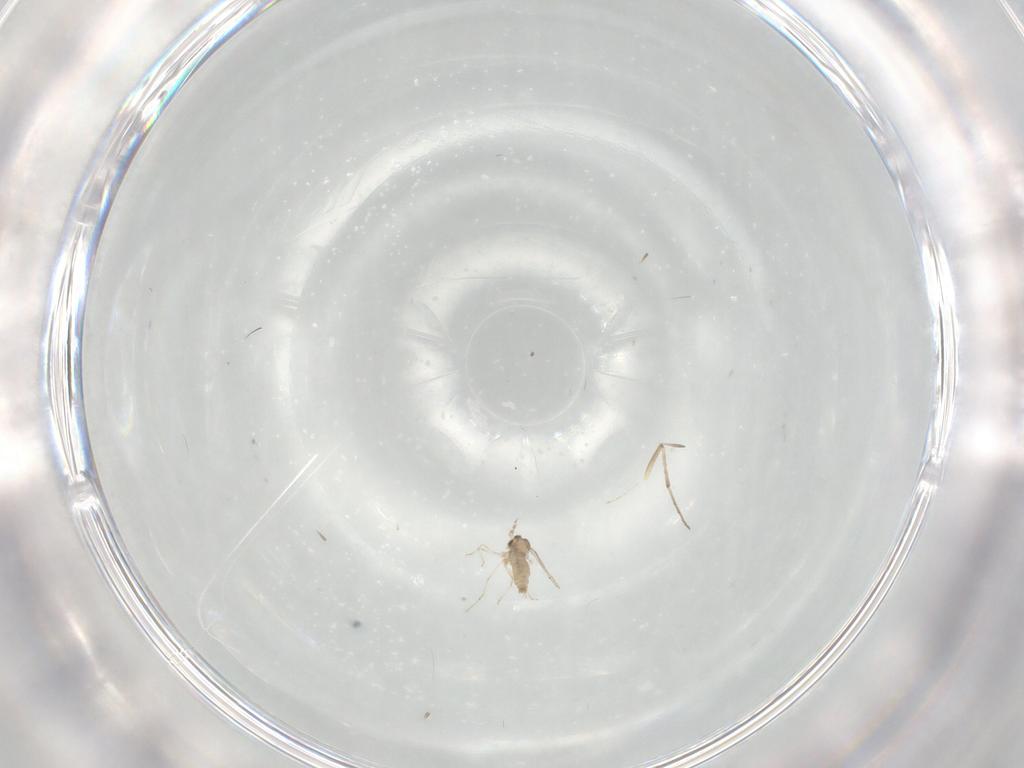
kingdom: Animalia
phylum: Arthropoda
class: Insecta
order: Diptera
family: Cecidomyiidae
